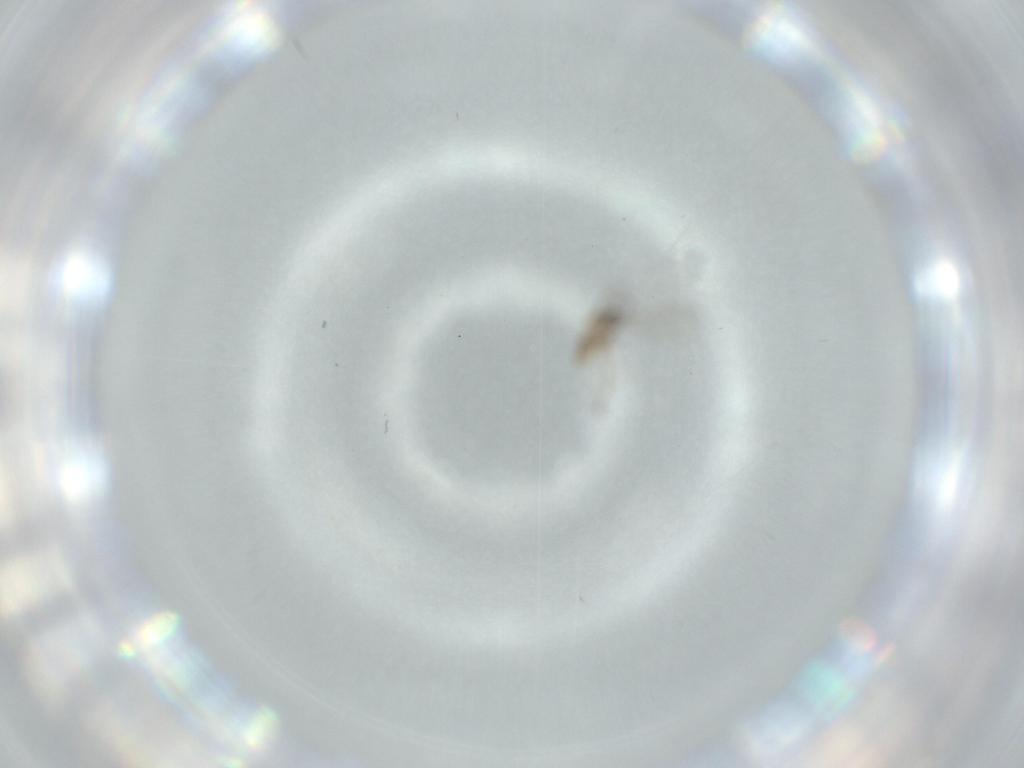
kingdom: Animalia
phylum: Arthropoda
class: Insecta
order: Diptera
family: Cecidomyiidae
